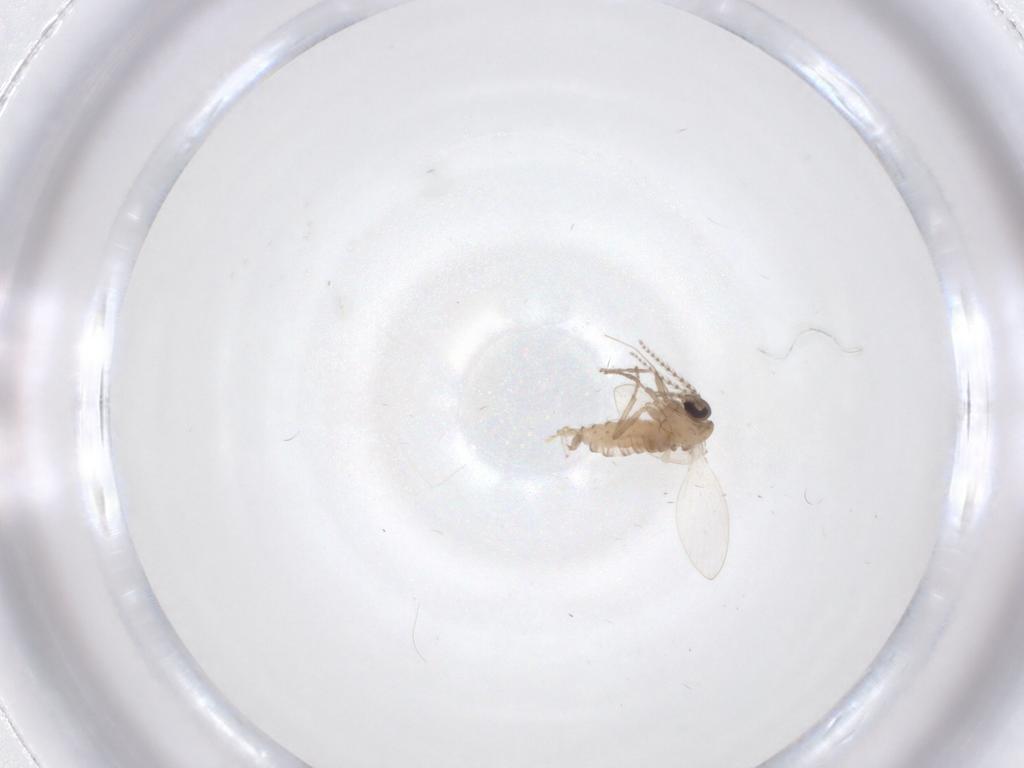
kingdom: Animalia
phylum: Arthropoda
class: Insecta
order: Diptera
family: Psychodidae
